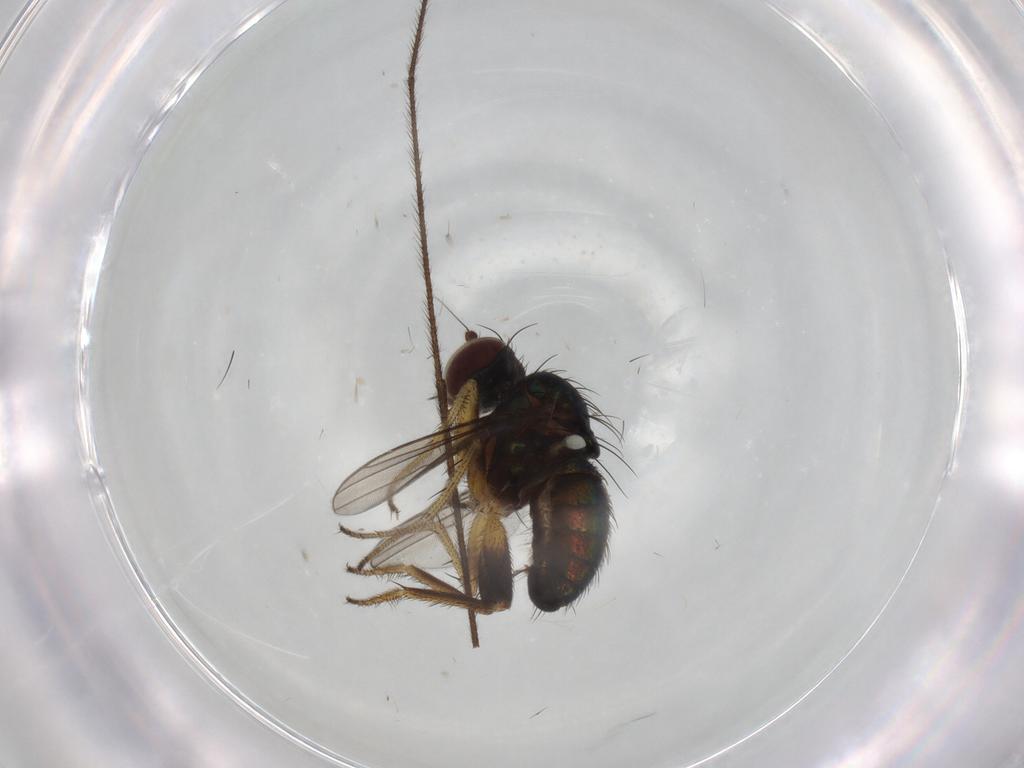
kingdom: Animalia
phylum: Arthropoda
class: Insecta
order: Diptera
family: Dolichopodidae
